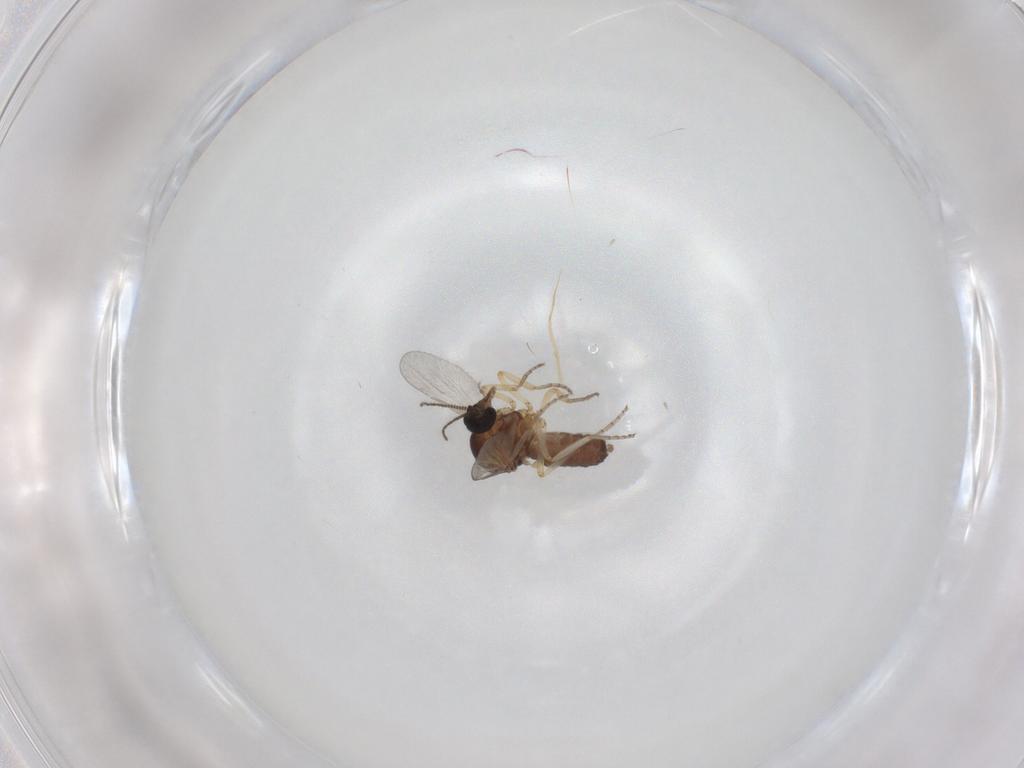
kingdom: Animalia
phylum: Arthropoda
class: Insecta
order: Diptera
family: Ceratopogonidae
